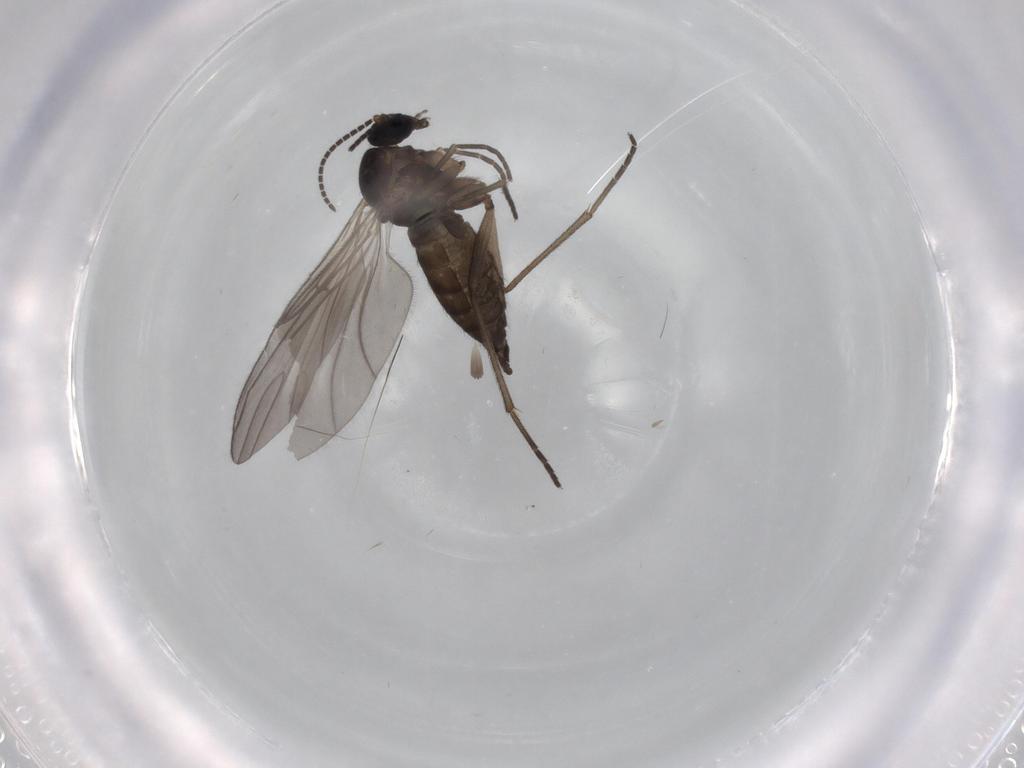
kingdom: Animalia
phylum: Arthropoda
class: Insecta
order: Diptera
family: Sciaridae
